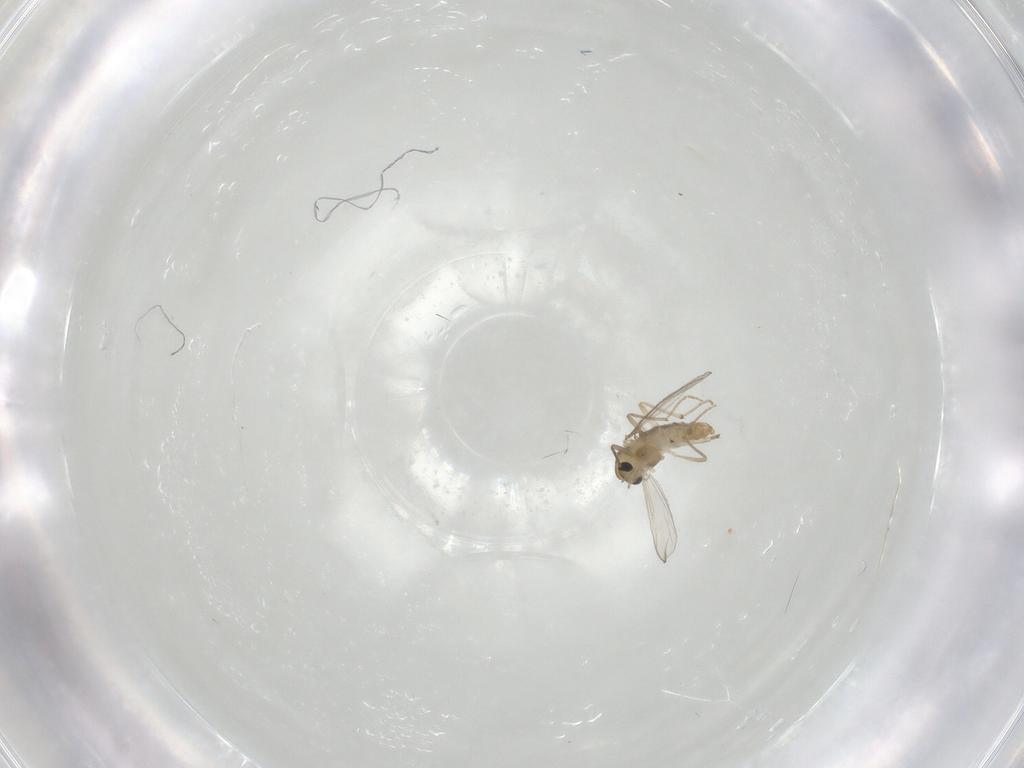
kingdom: Animalia
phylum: Arthropoda
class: Insecta
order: Diptera
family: Chironomidae
